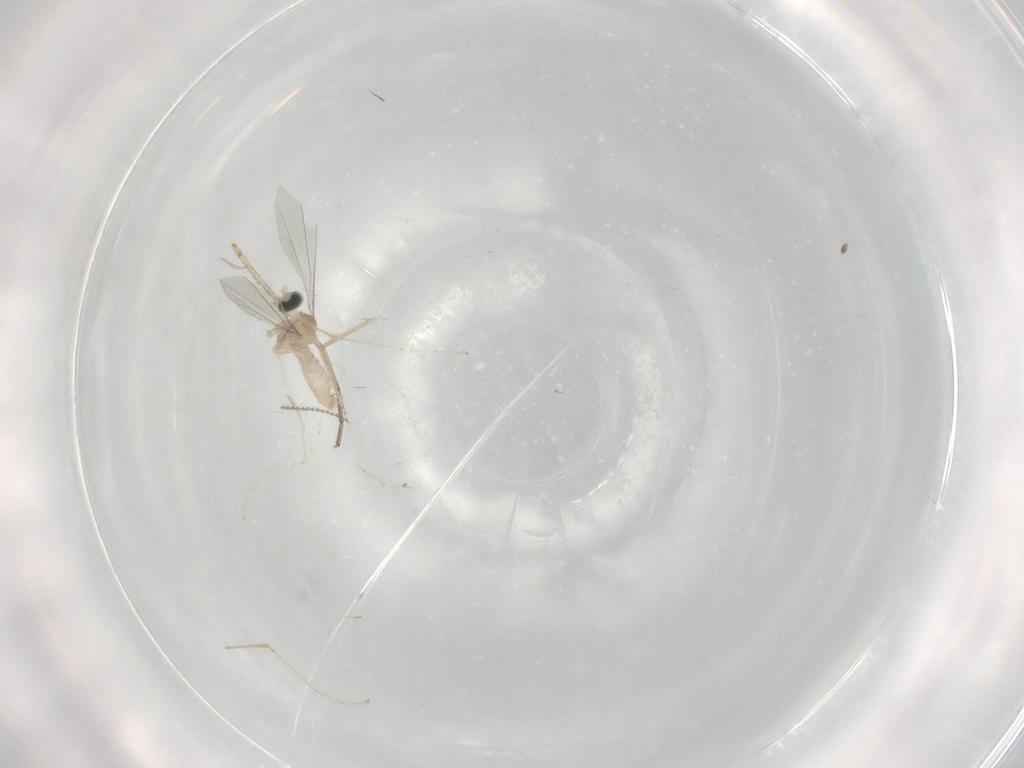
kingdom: Animalia
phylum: Arthropoda
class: Insecta
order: Diptera
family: Cecidomyiidae
